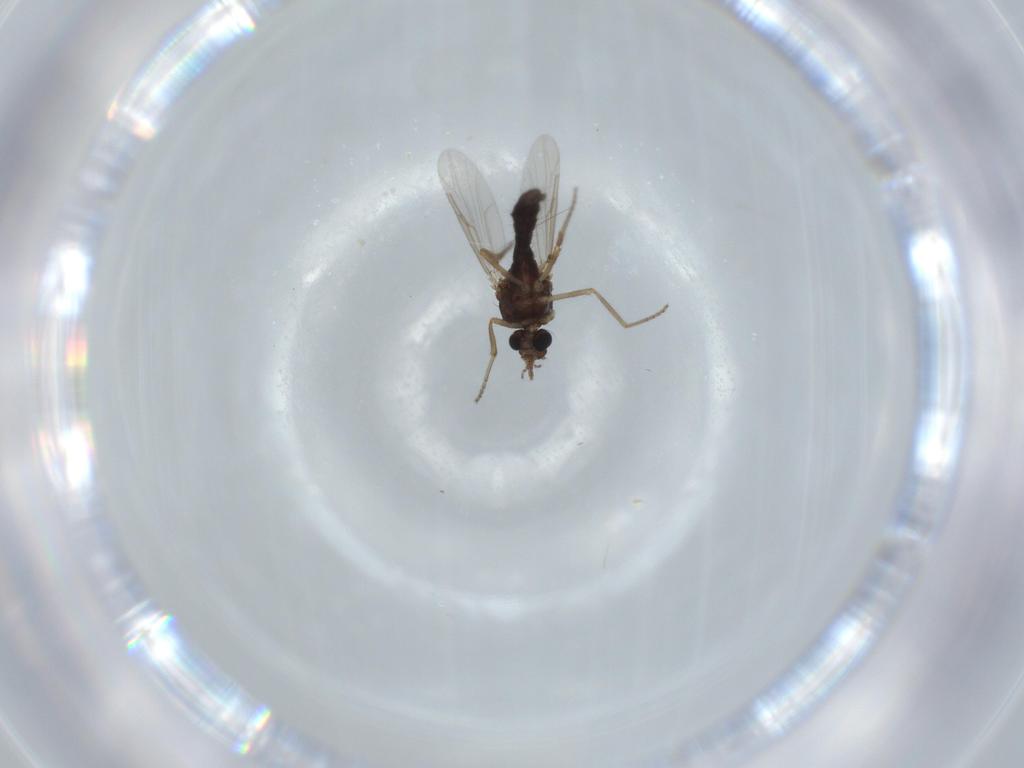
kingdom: Animalia
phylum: Arthropoda
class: Insecta
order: Diptera
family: Ceratopogonidae
